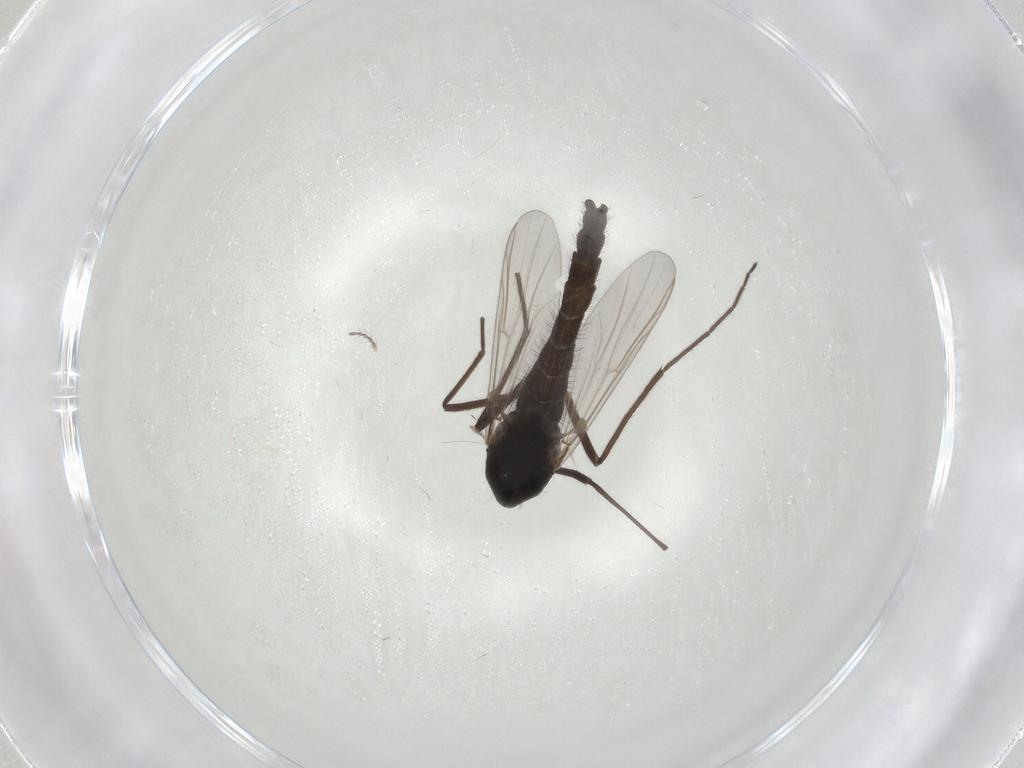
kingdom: Animalia
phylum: Arthropoda
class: Insecta
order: Diptera
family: Chironomidae
